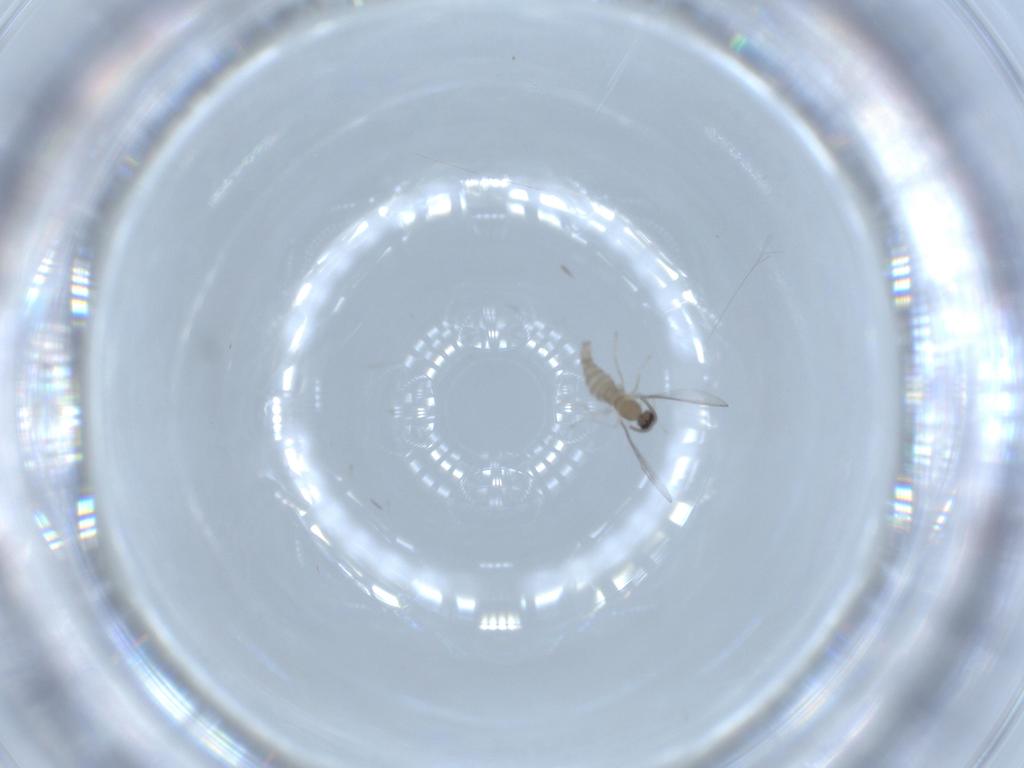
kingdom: Animalia
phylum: Arthropoda
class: Insecta
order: Diptera
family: Cecidomyiidae
